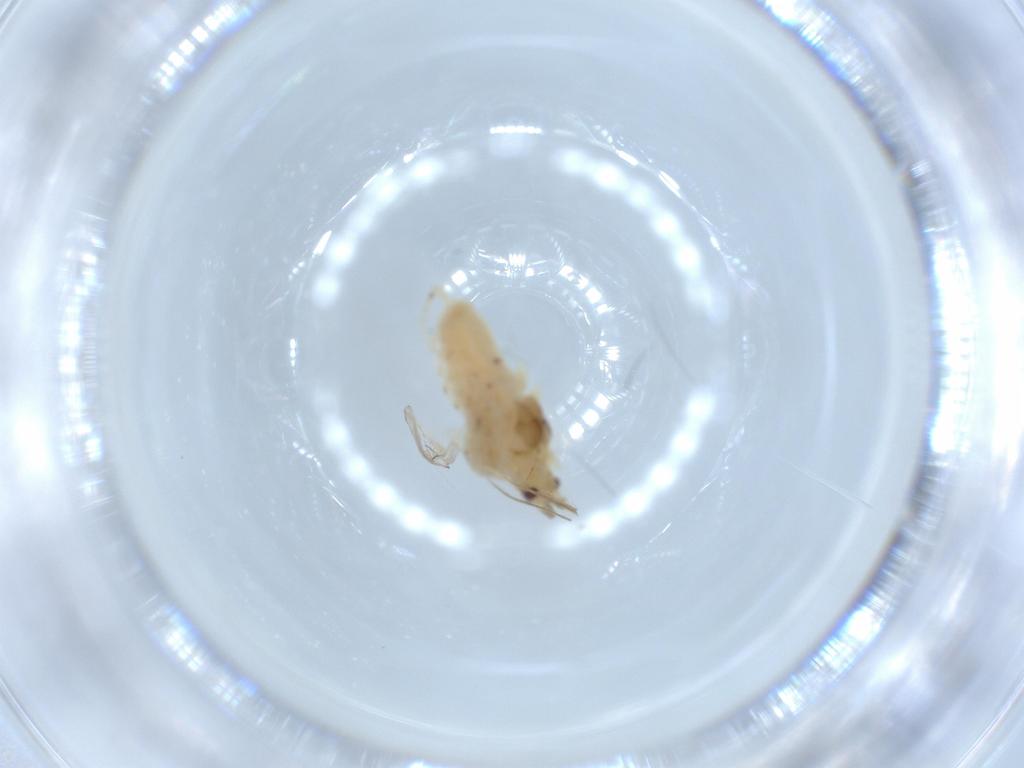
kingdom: Animalia
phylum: Arthropoda
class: Insecta
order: Hemiptera
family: Aphididae
